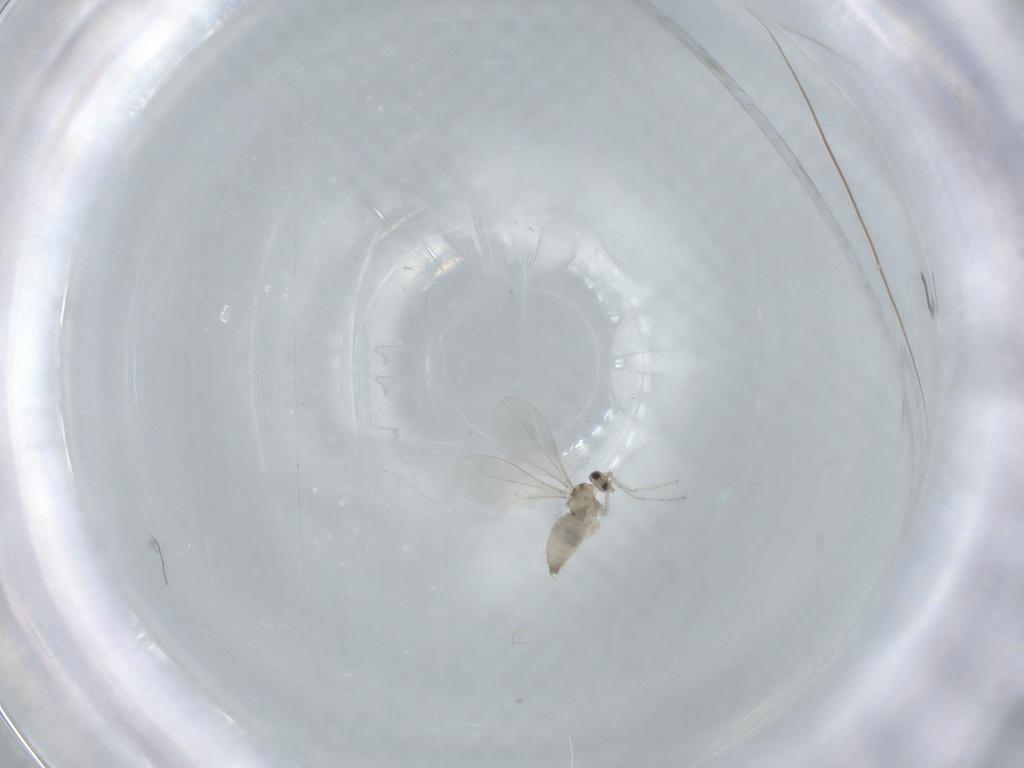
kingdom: Animalia
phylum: Arthropoda
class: Insecta
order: Diptera
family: Cecidomyiidae
